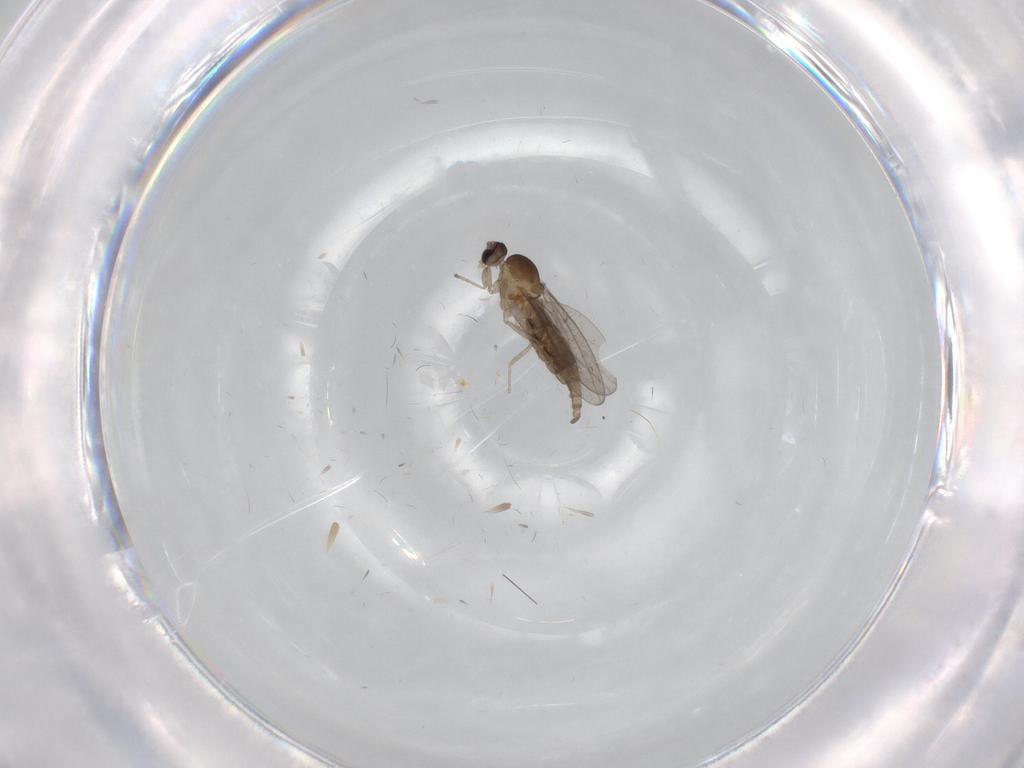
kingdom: Animalia
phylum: Arthropoda
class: Insecta
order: Diptera
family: Cecidomyiidae
